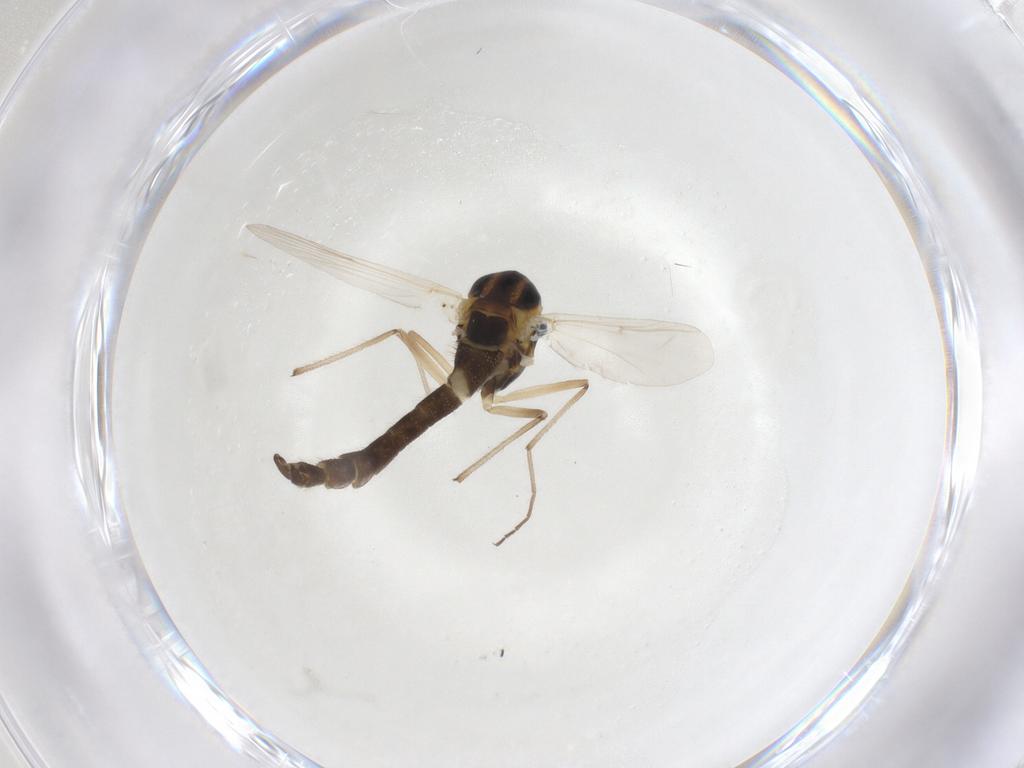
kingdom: Animalia
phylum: Arthropoda
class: Insecta
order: Diptera
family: Chironomidae
